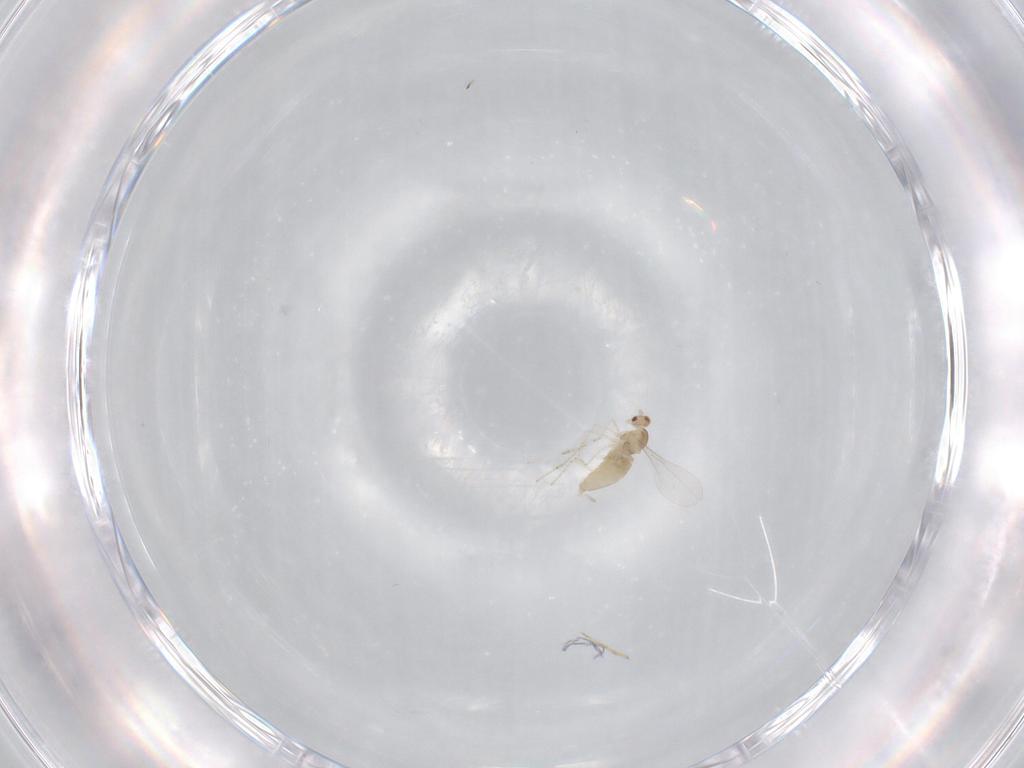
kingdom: Animalia
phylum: Arthropoda
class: Insecta
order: Diptera
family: Cecidomyiidae
